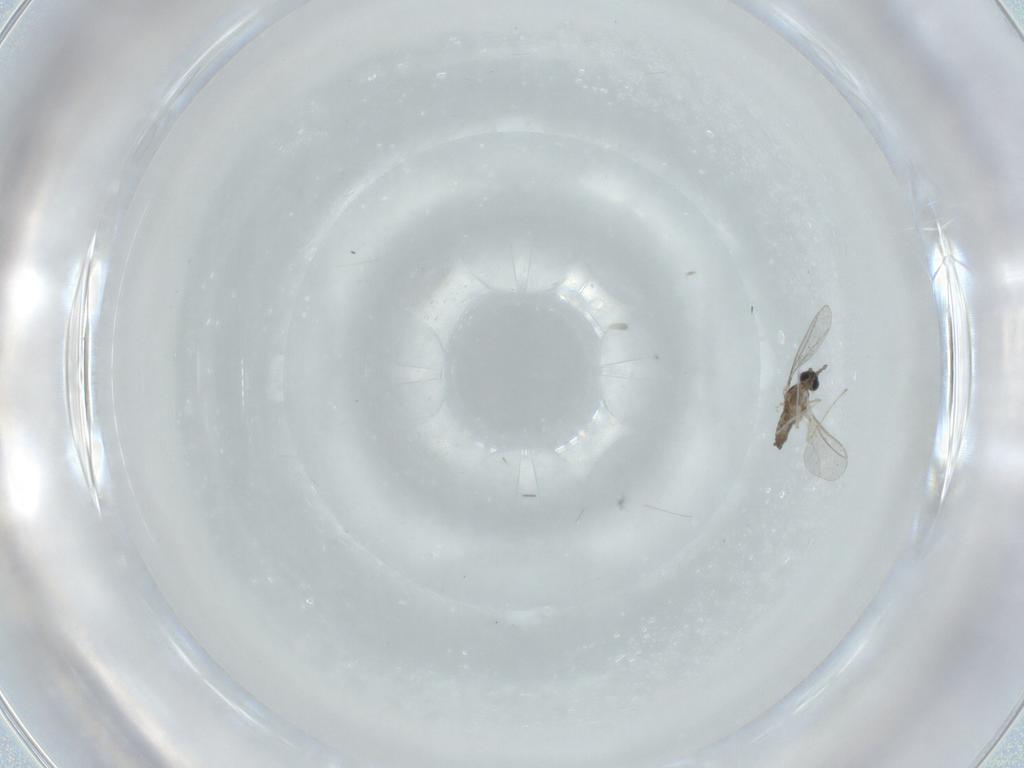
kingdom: Animalia
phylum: Arthropoda
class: Insecta
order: Diptera
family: Cecidomyiidae
